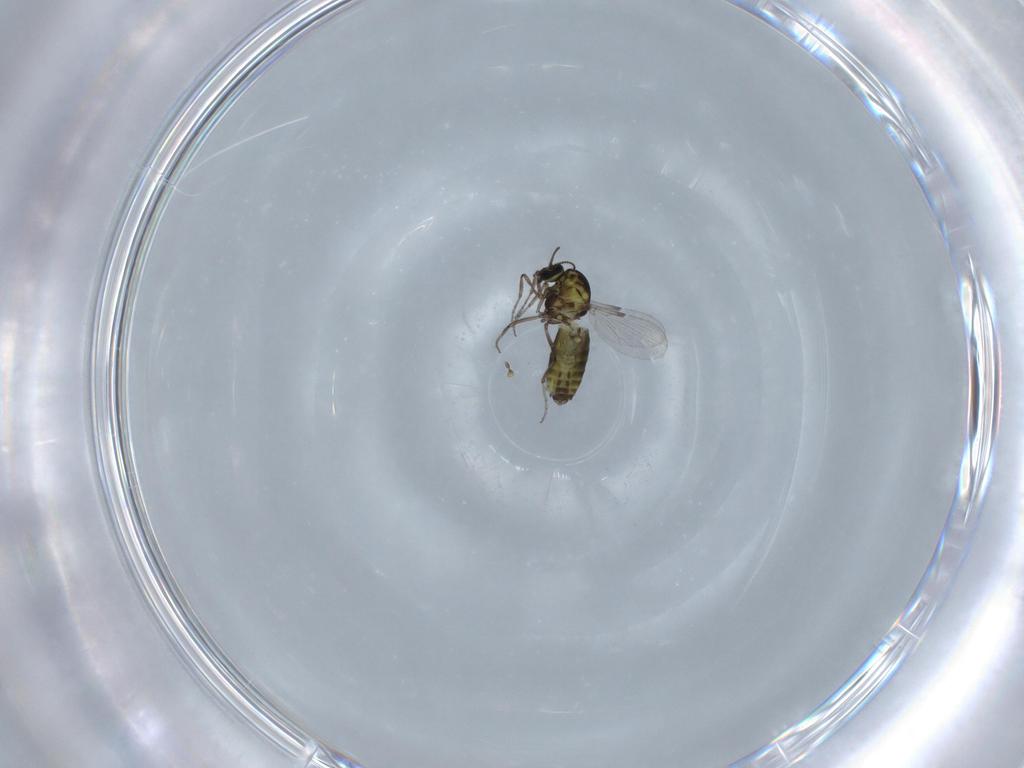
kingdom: Animalia
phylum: Arthropoda
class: Insecta
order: Diptera
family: Ceratopogonidae
